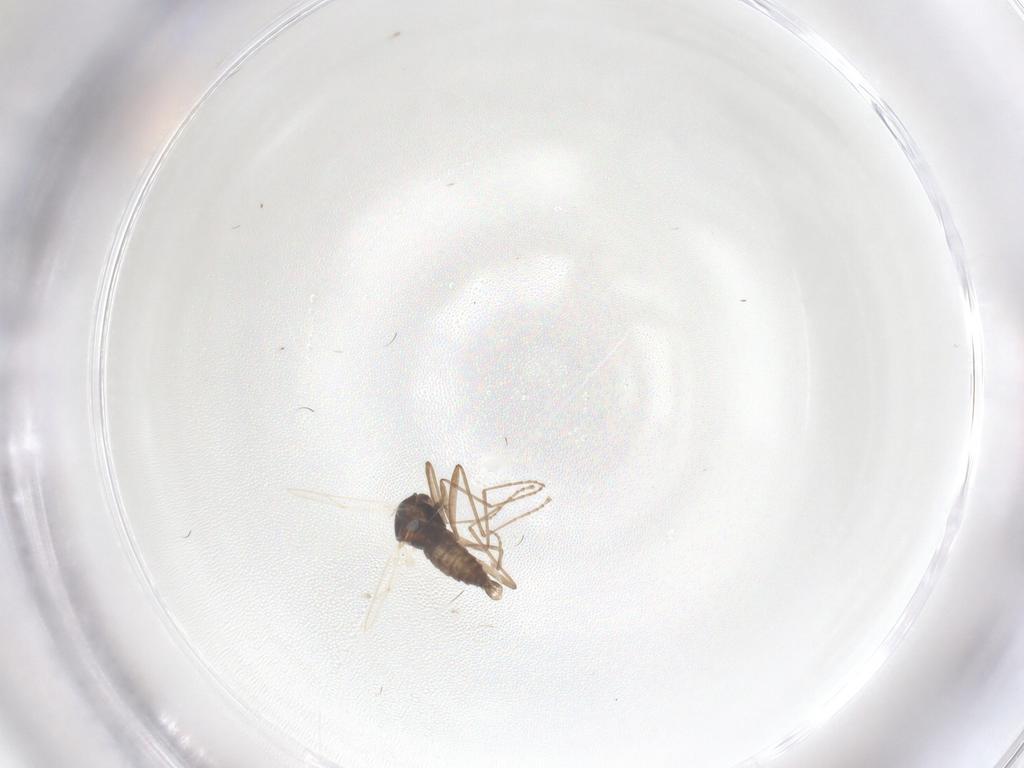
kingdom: Animalia
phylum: Arthropoda
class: Insecta
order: Diptera
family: Cecidomyiidae
